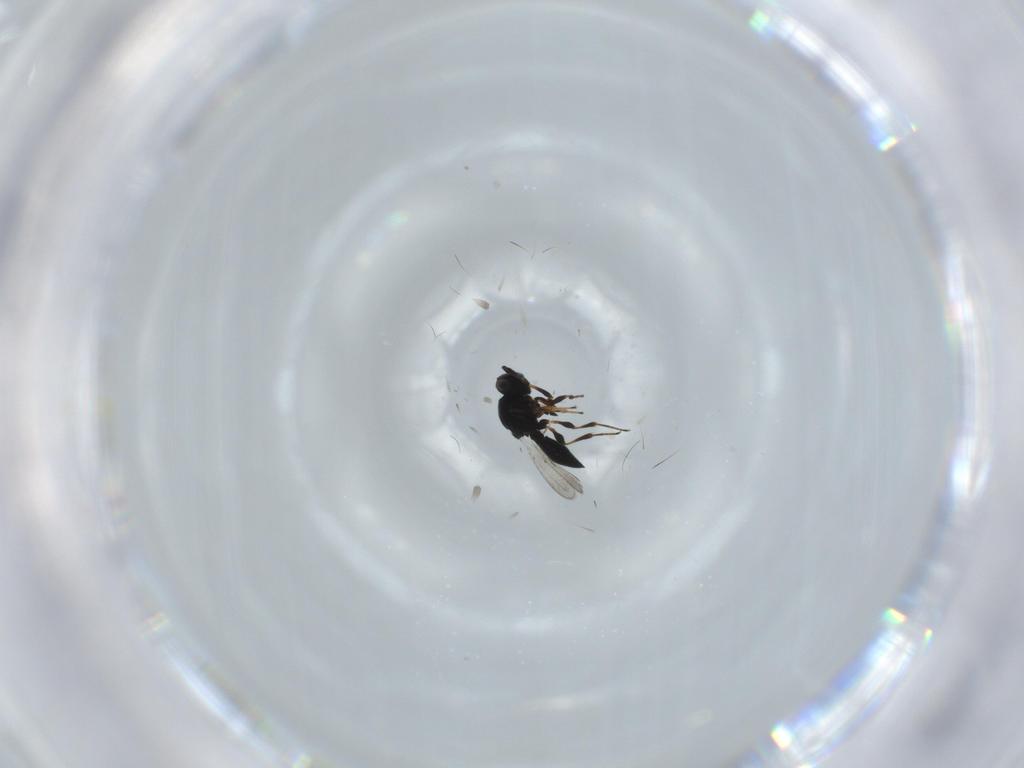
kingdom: Animalia
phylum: Arthropoda
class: Insecta
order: Hymenoptera
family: Platygastridae
